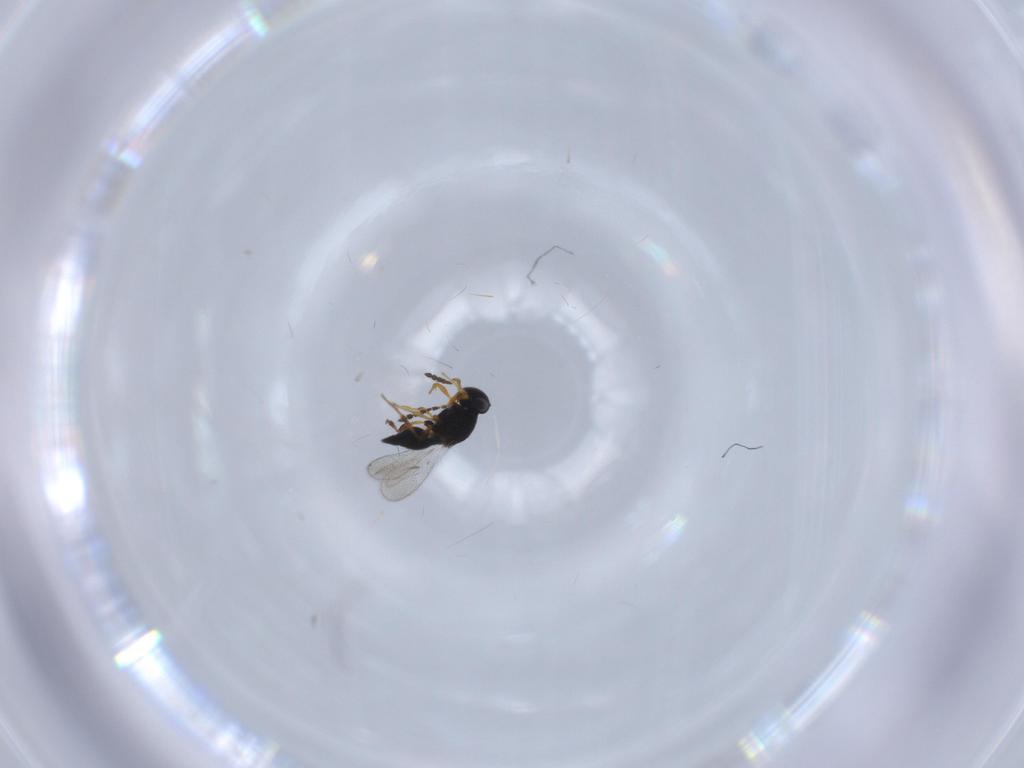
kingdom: Animalia
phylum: Arthropoda
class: Insecta
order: Hymenoptera
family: Platygastridae
